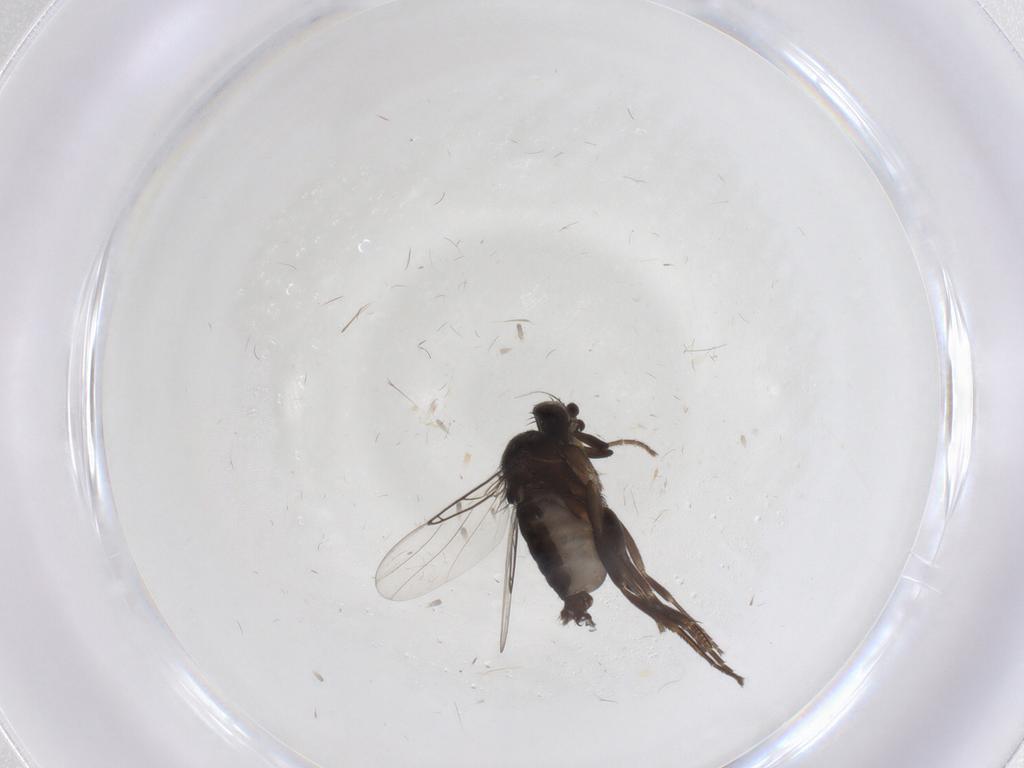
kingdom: Animalia
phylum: Arthropoda
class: Insecta
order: Diptera
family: Phoridae
